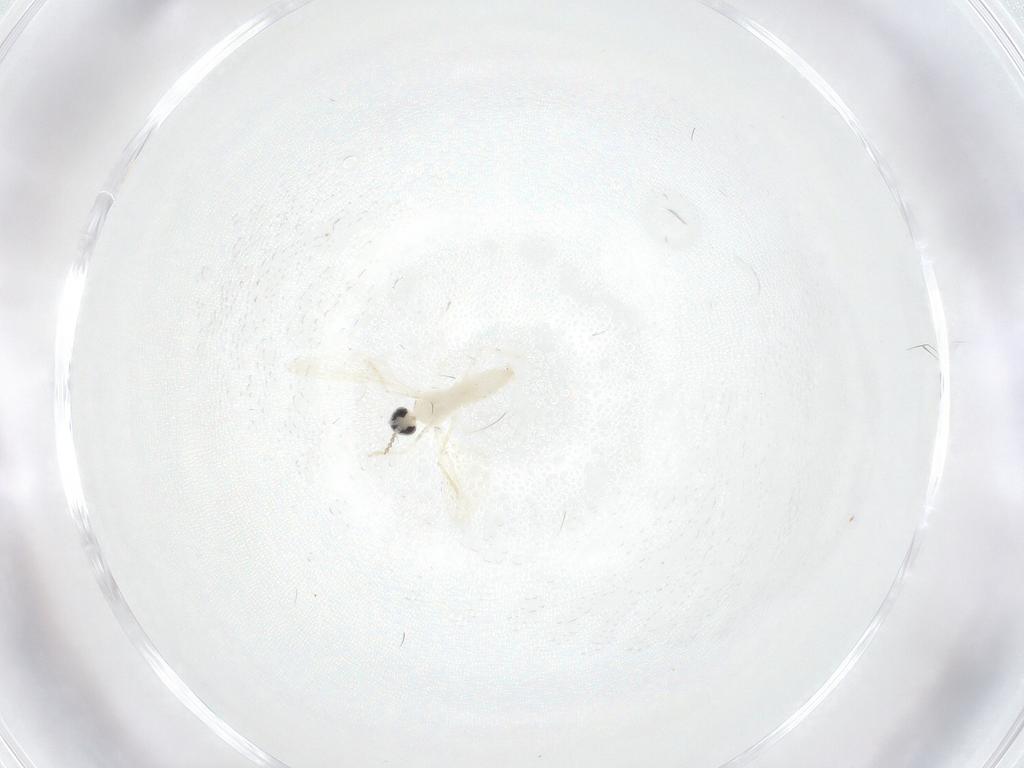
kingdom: Animalia
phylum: Arthropoda
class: Insecta
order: Diptera
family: Cecidomyiidae
